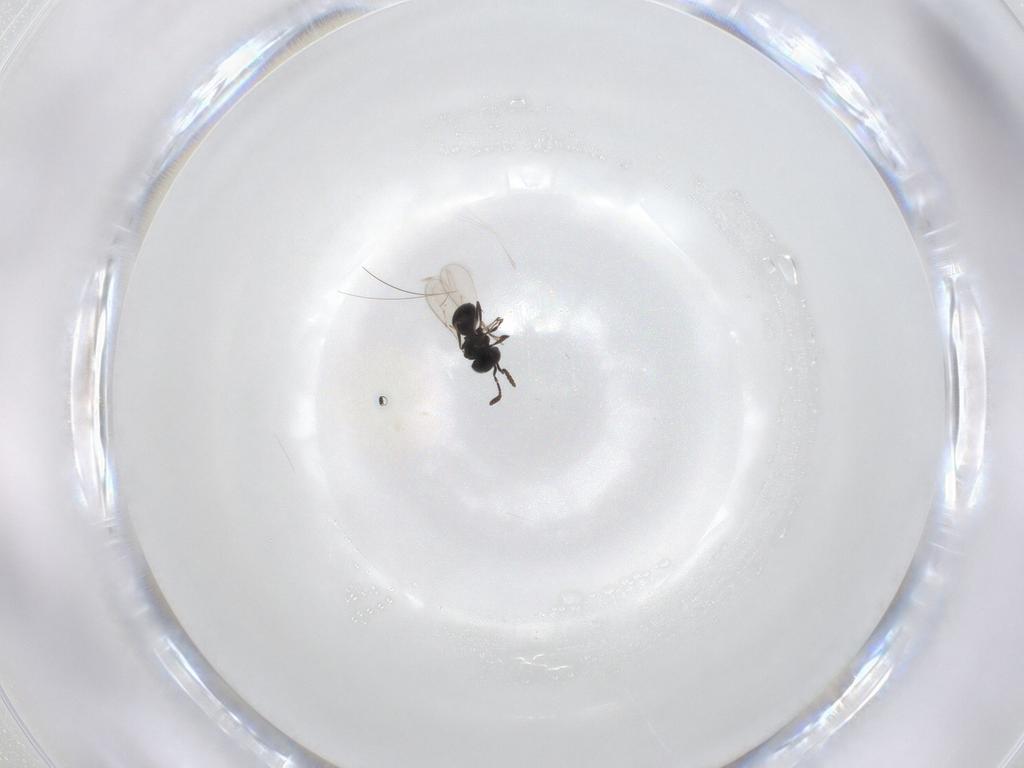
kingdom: Animalia
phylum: Arthropoda
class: Insecta
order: Hymenoptera
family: Scelionidae
